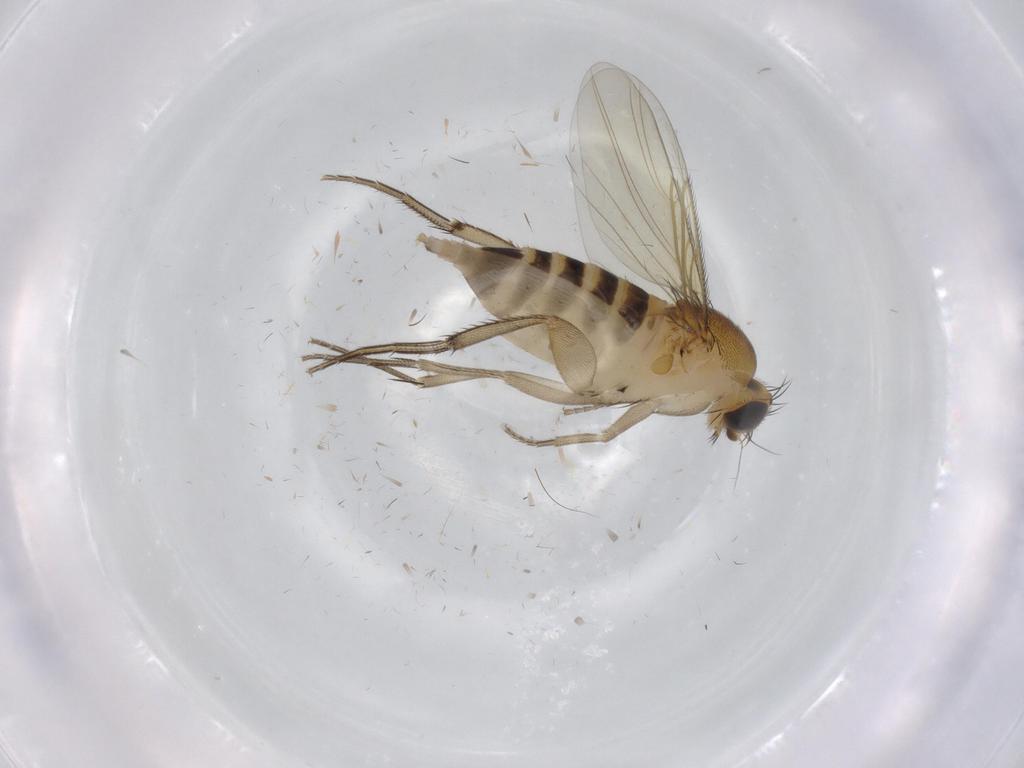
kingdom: Animalia
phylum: Arthropoda
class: Insecta
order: Diptera
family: Phoridae
